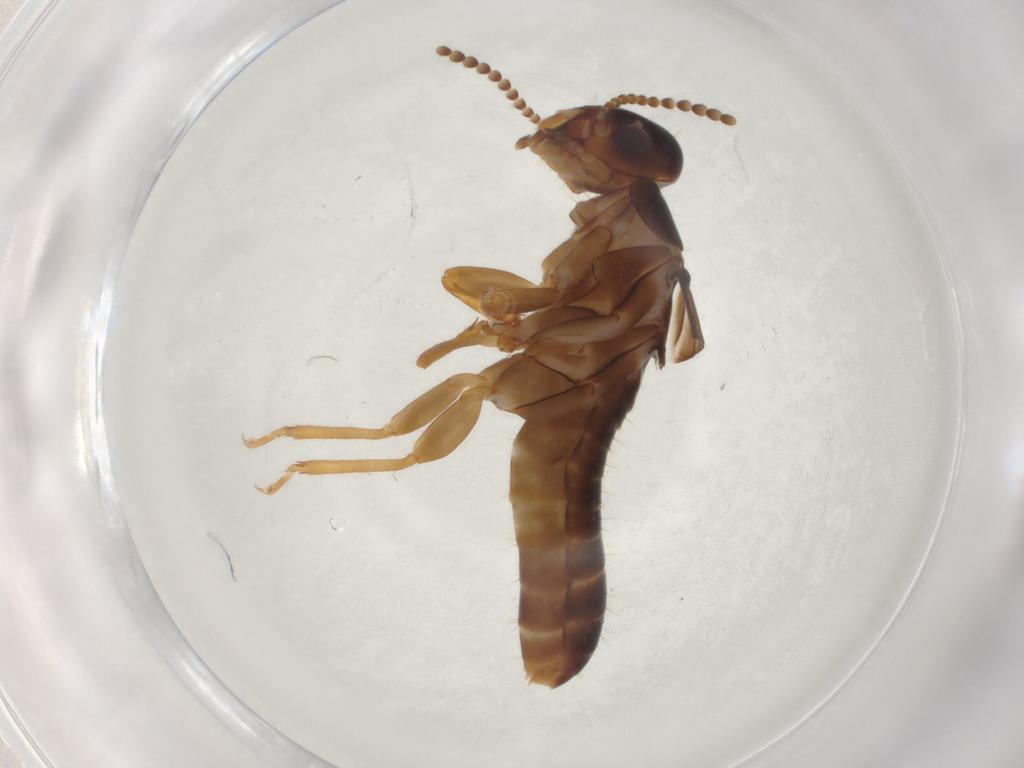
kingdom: Animalia
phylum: Arthropoda
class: Insecta
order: Blattodea
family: Kalotermitidae
